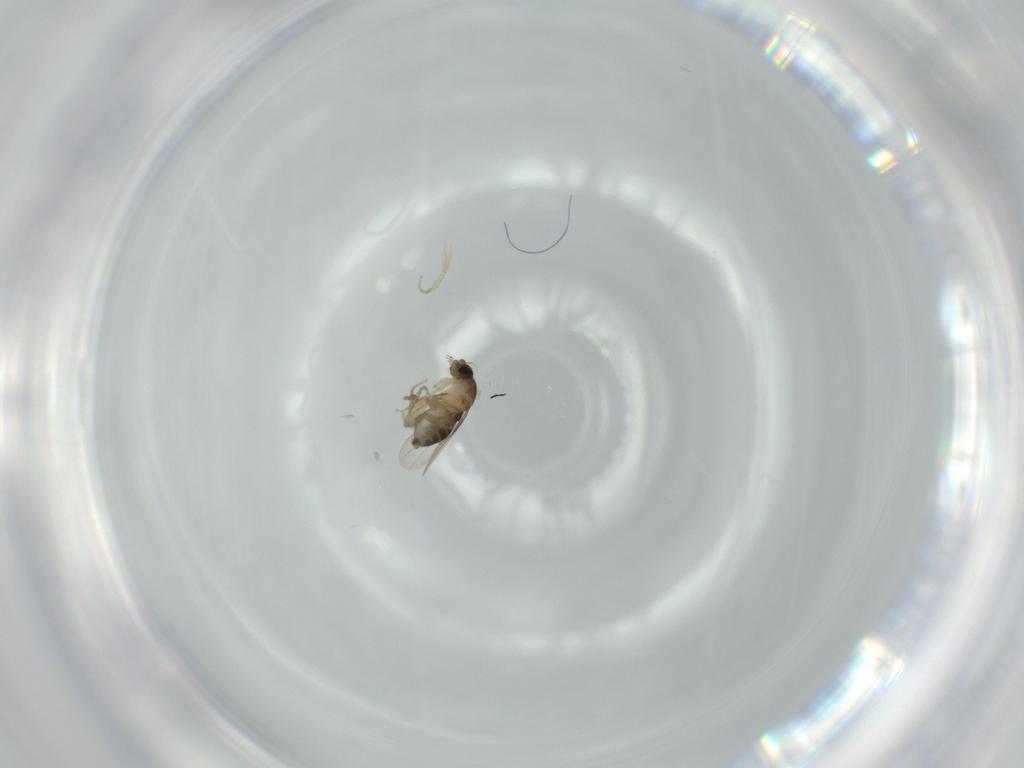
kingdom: Animalia
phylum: Arthropoda
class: Insecta
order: Diptera
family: Phoridae
